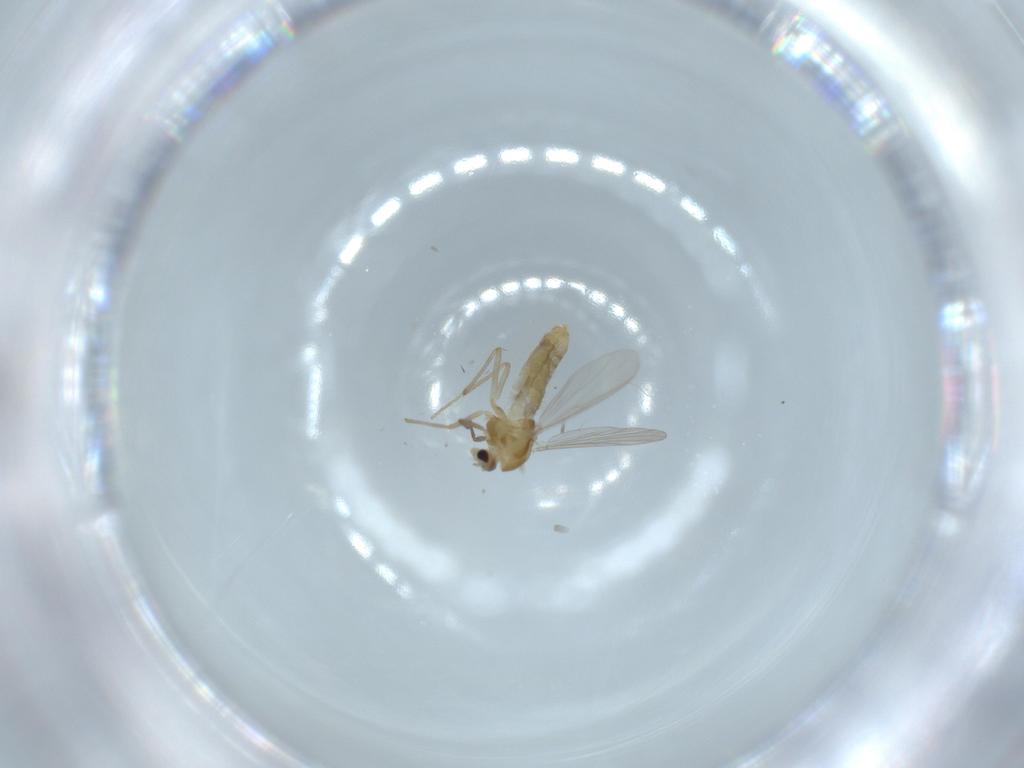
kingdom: Animalia
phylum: Arthropoda
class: Insecta
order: Diptera
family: Chironomidae
